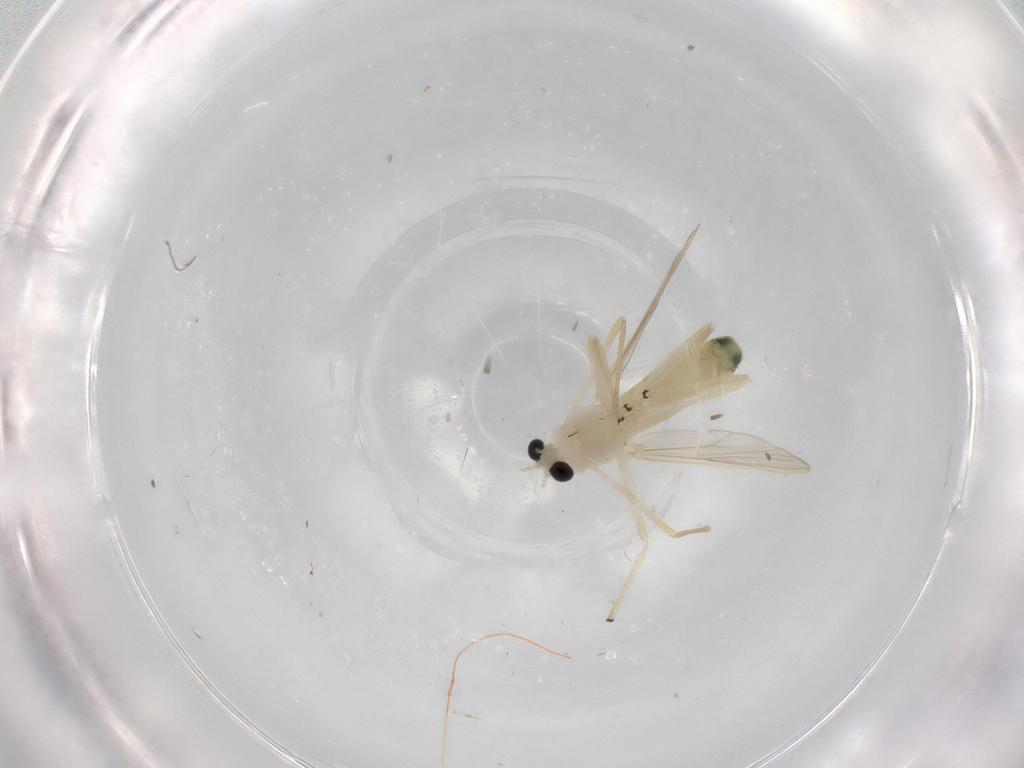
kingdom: Animalia
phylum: Arthropoda
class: Insecta
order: Diptera
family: Chironomidae
